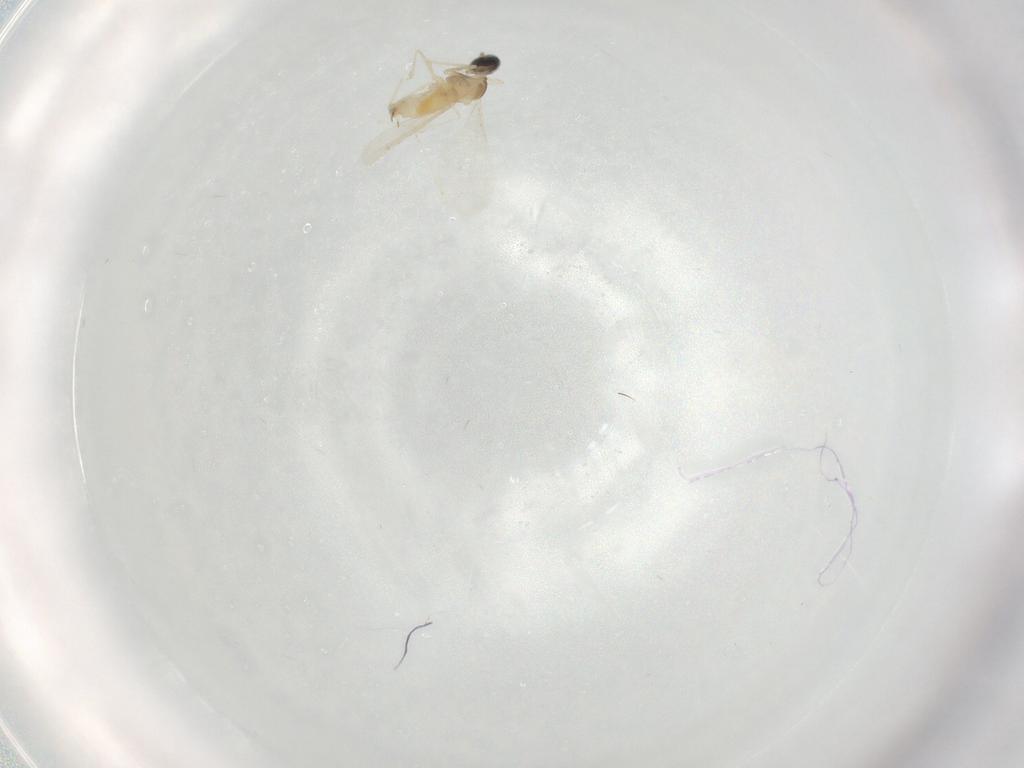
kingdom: Animalia
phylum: Arthropoda
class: Insecta
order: Diptera
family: Cecidomyiidae
